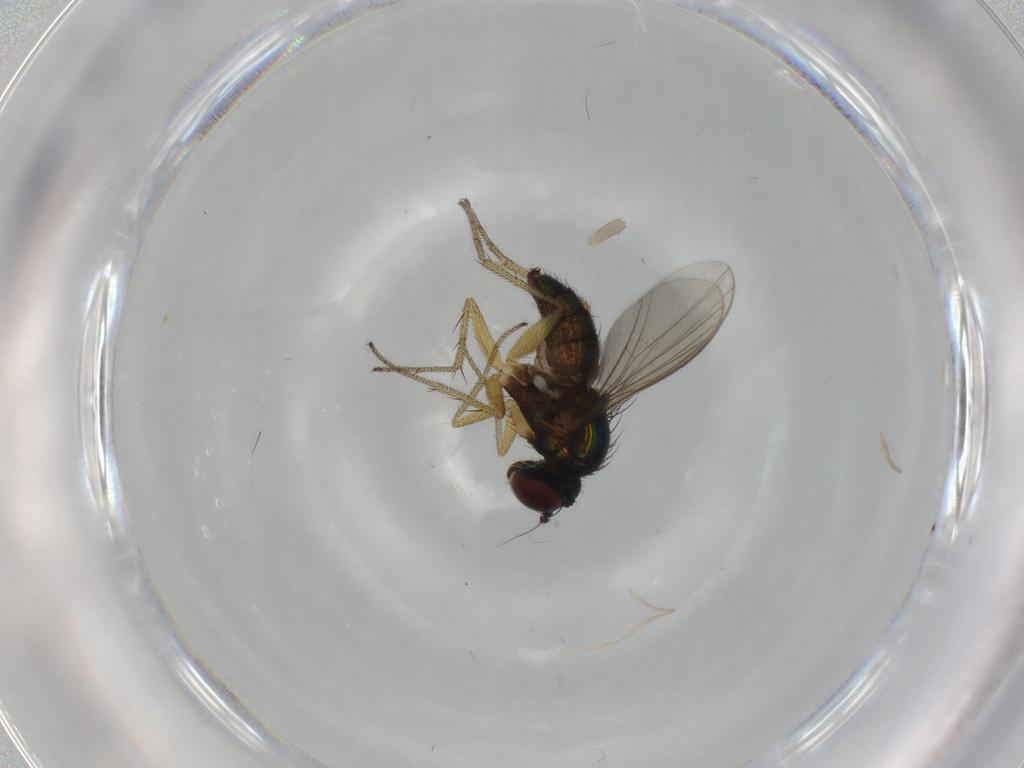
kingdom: Animalia
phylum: Arthropoda
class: Insecta
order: Diptera
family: Dolichopodidae
